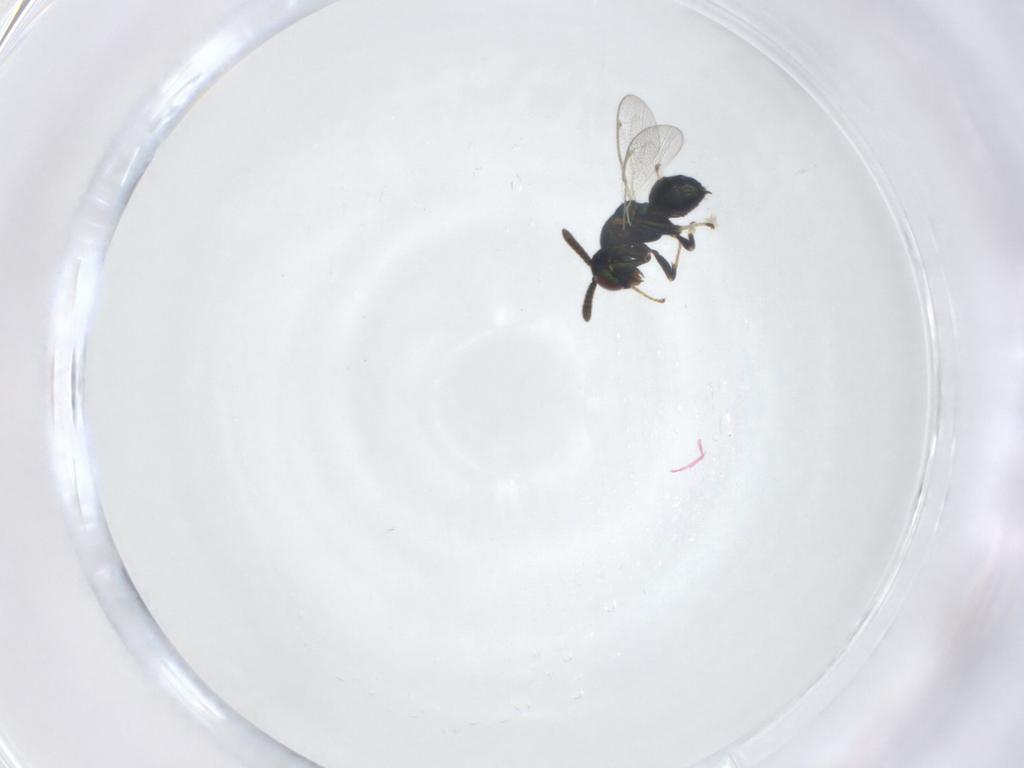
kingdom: Animalia
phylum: Arthropoda
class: Insecta
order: Hymenoptera
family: Torymidae
